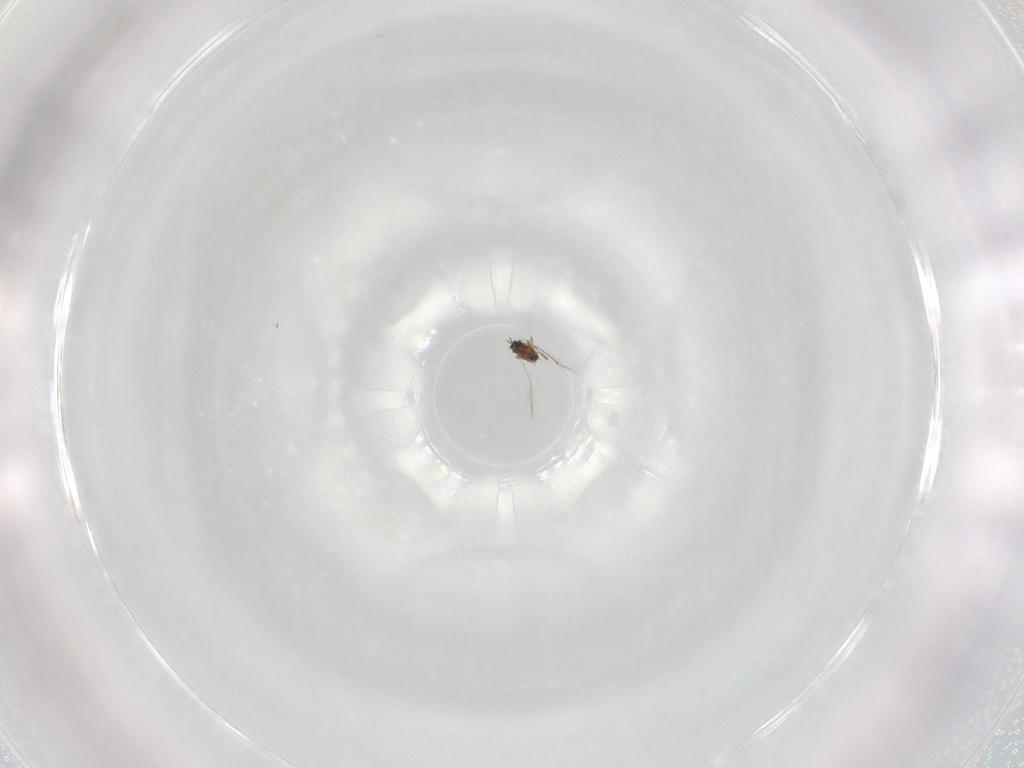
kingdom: Animalia
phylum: Arthropoda
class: Insecta
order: Hymenoptera
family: Mymaridae
